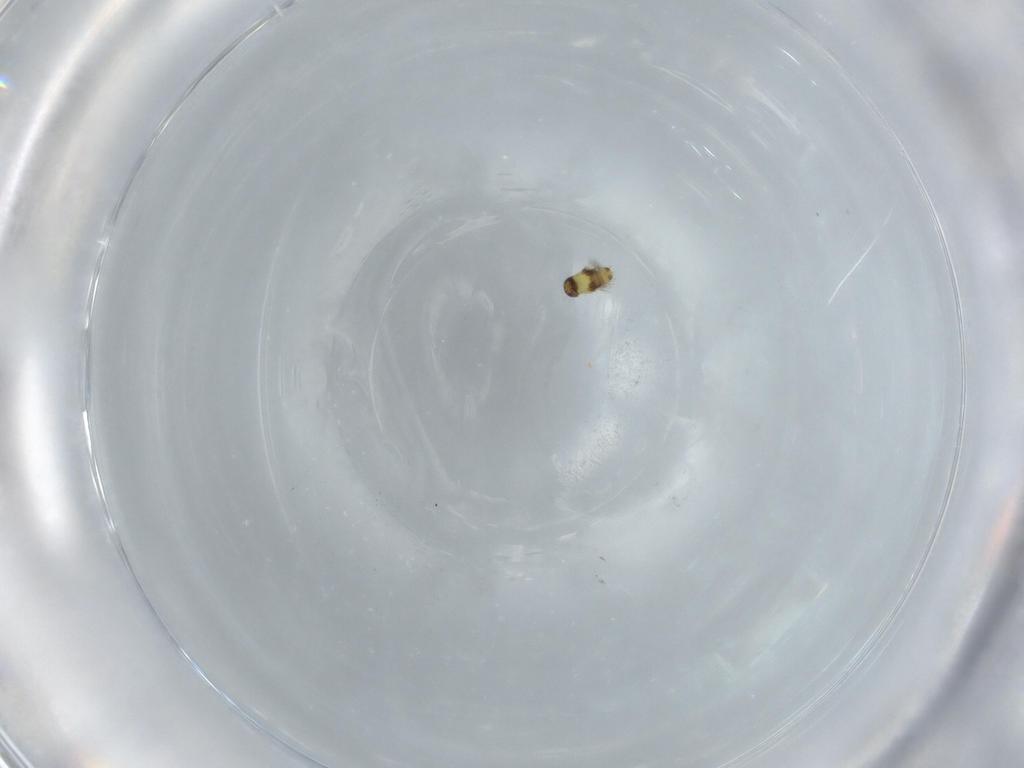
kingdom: Animalia
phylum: Arthropoda
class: Insecta
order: Hymenoptera
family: Signiphoridae
